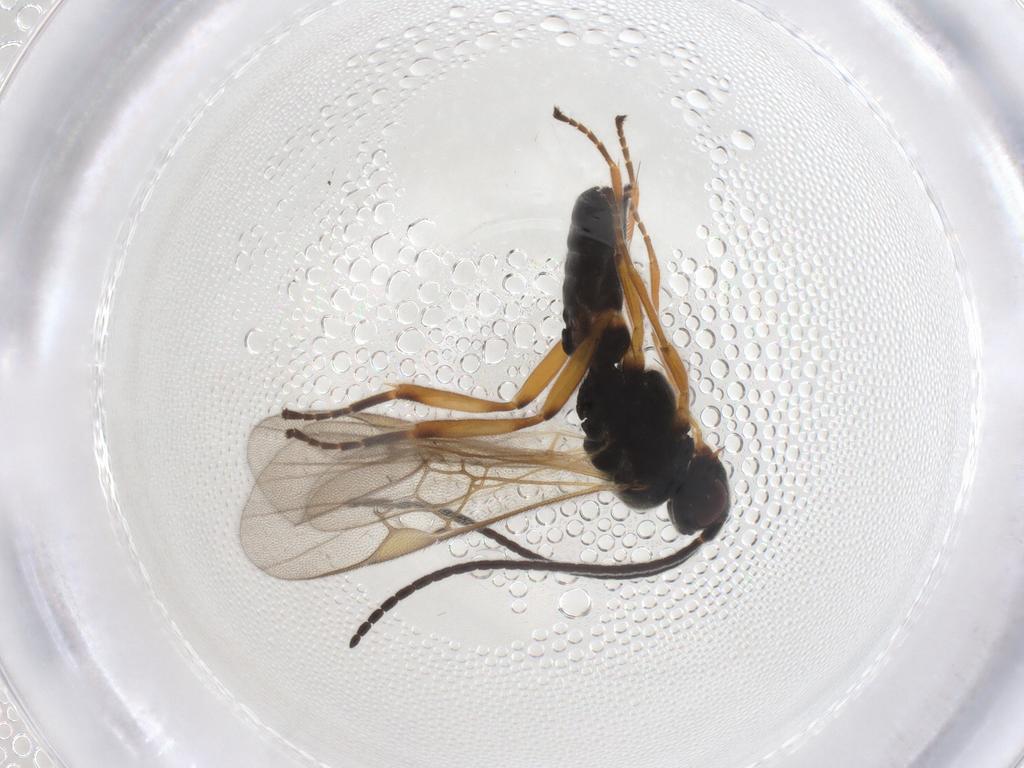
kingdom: Animalia
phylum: Arthropoda
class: Insecta
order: Hymenoptera
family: Braconidae
